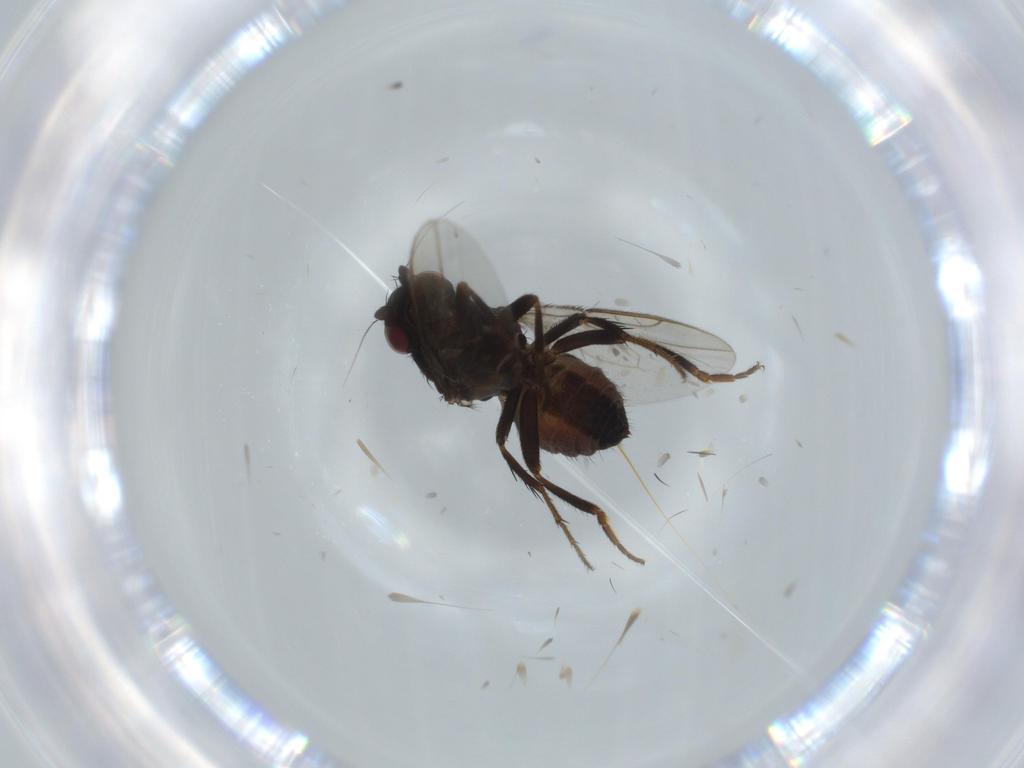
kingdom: Animalia
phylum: Arthropoda
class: Insecta
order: Diptera
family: Sphaeroceridae
